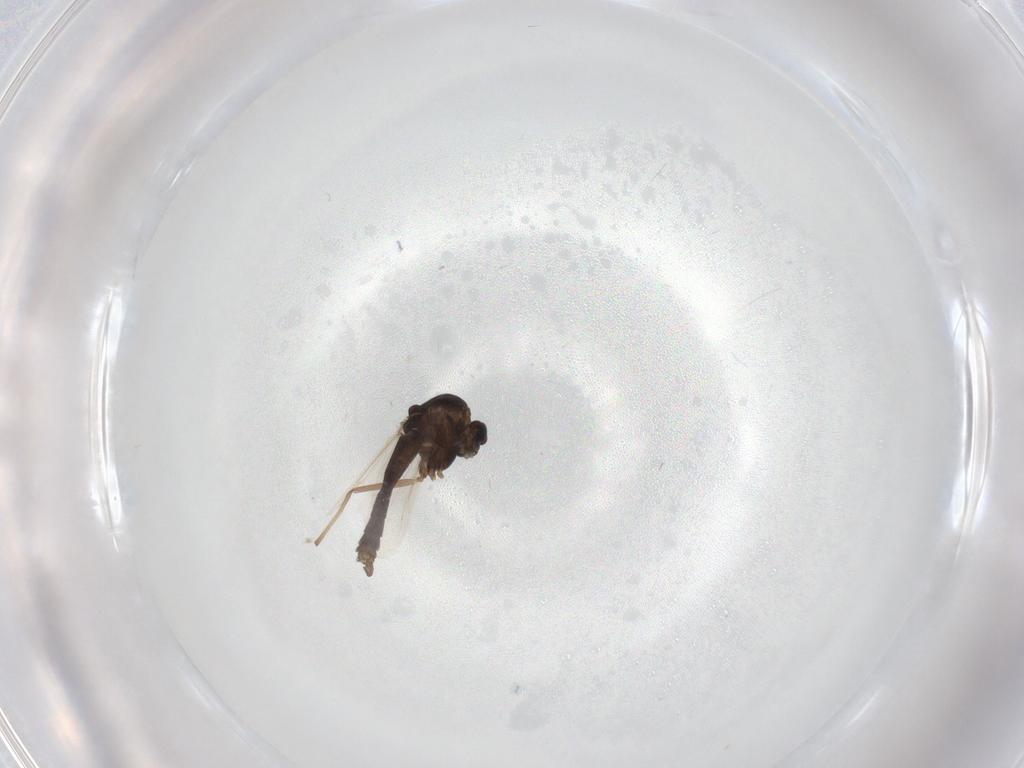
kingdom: Animalia
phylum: Arthropoda
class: Insecta
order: Diptera
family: Chironomidae
